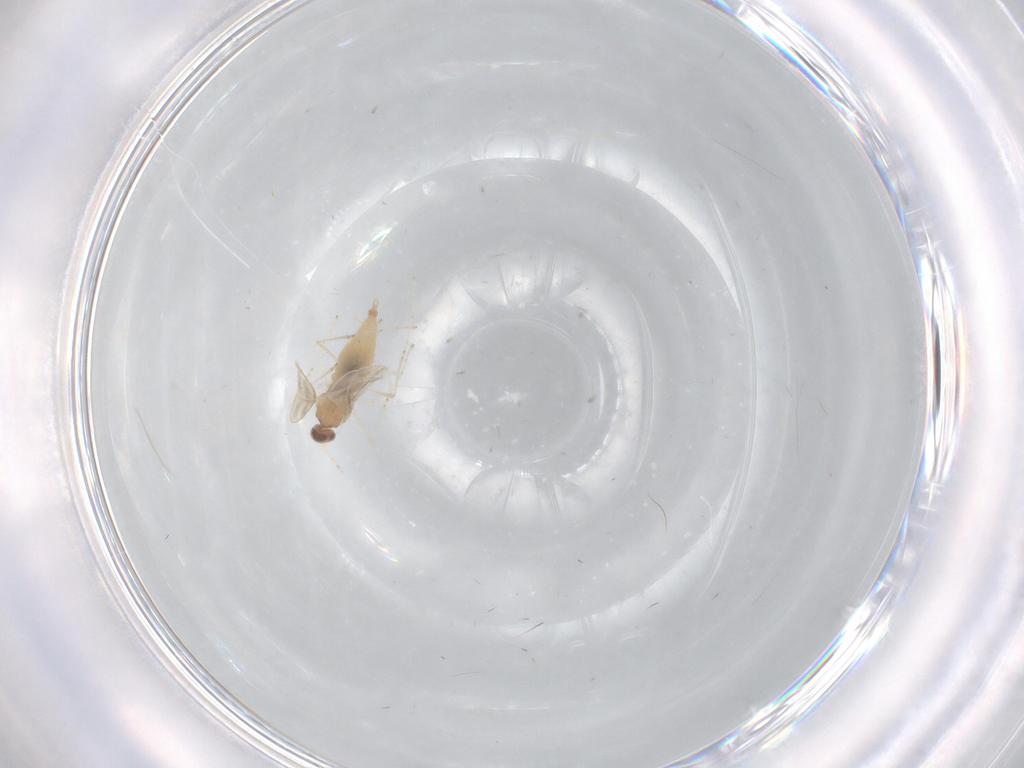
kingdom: Animalia
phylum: Arthropoda
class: Insecta
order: Diptera
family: Cecidomyiidae
